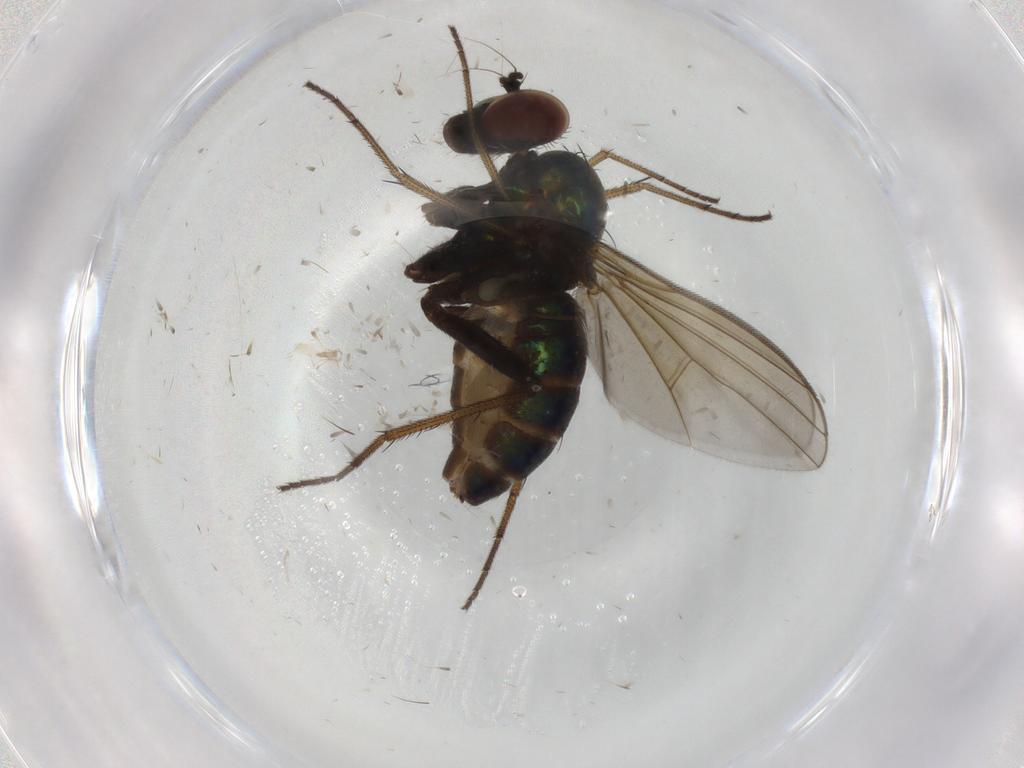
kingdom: Animalia
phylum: Arthropoda
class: Insecta
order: Diptera
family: Dolichopodidae
